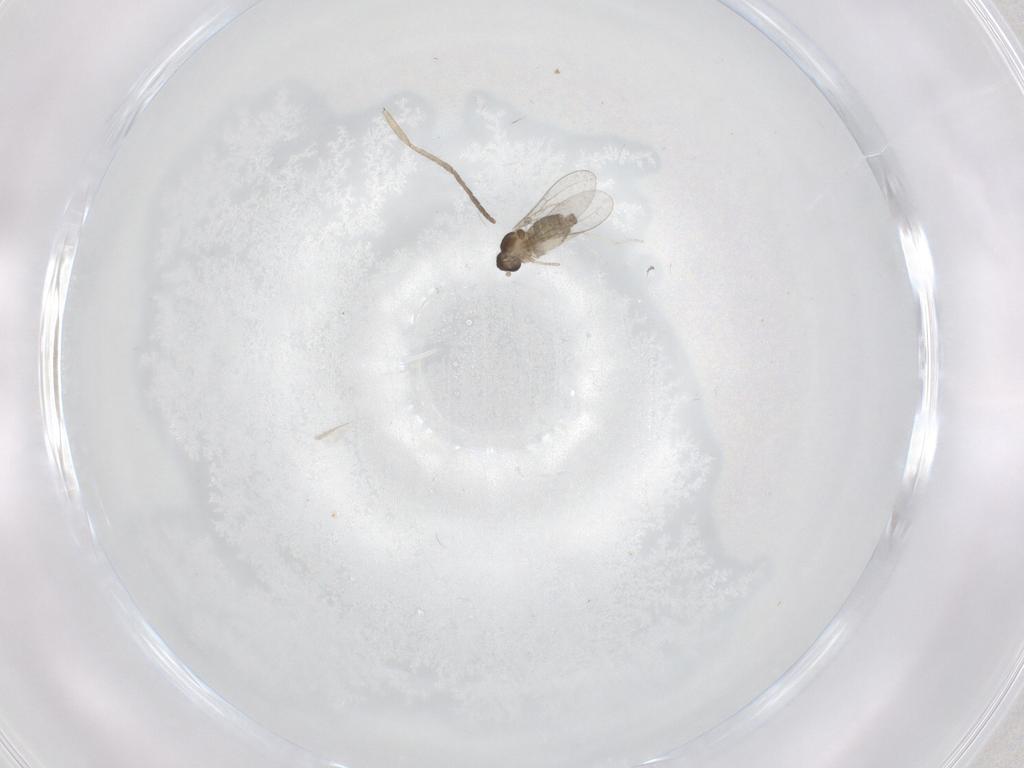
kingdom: Animalia
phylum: Arthropoda
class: Insecta
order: Diptera
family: Cecidomyiidae
